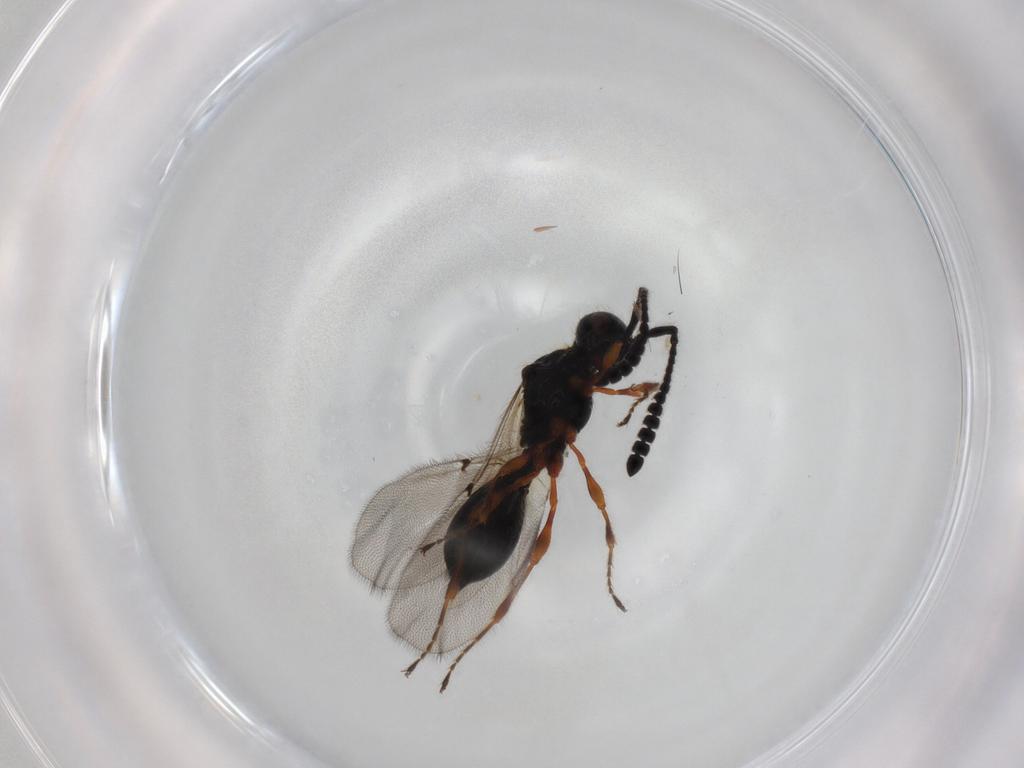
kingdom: Animalia
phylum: Arthropoda
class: Insecta
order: Hymenoptera
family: Diapriidae
